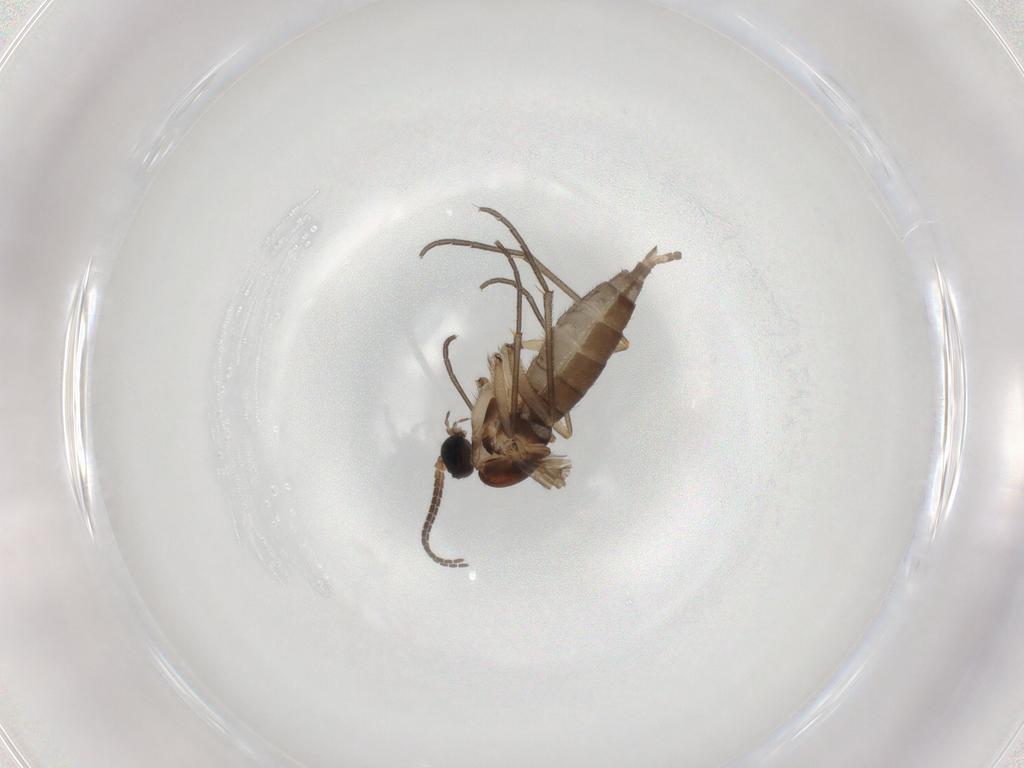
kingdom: Animalia
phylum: Arthropoda
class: Insecta
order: Diptera
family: Sciaridae
